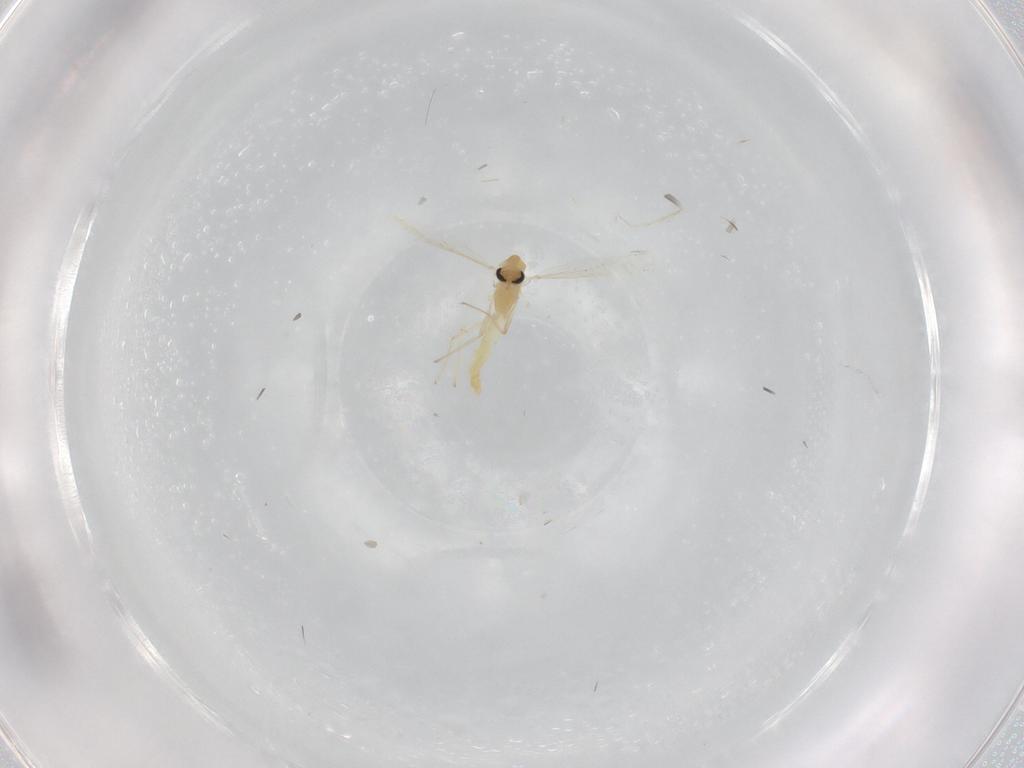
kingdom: Animalia
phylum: Arthropoda
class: Insecta
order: Diptera
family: Chironomidae
